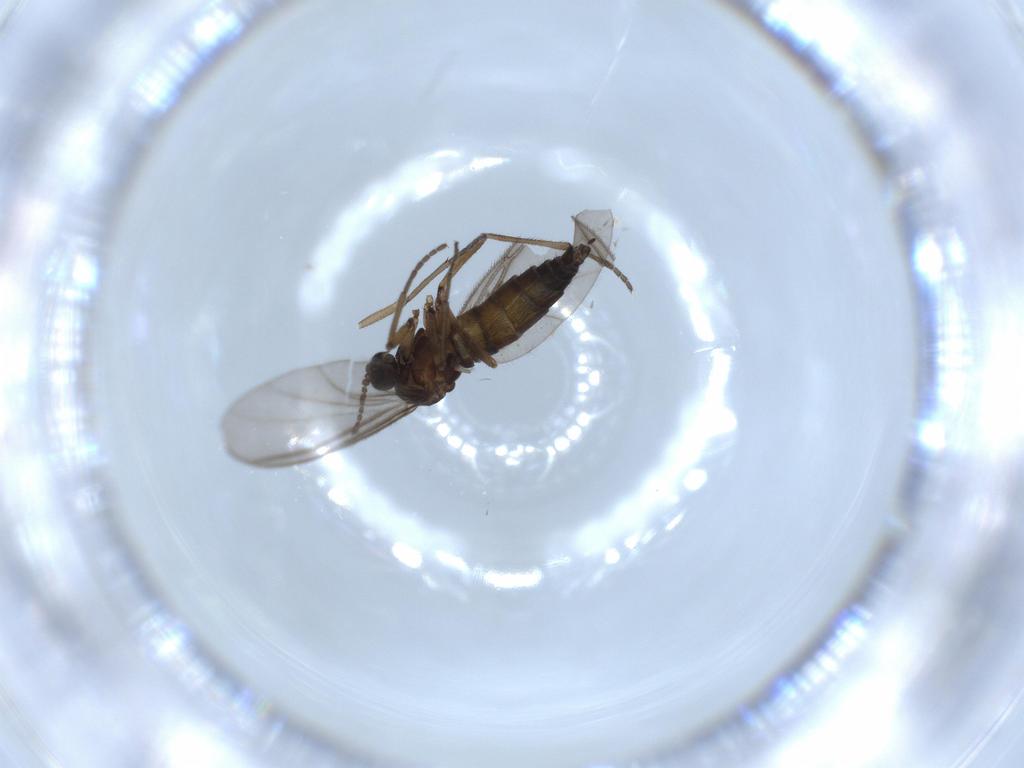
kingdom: Animalia
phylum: Arthropoda
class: Insecta
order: Diptera
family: Sciaridae
